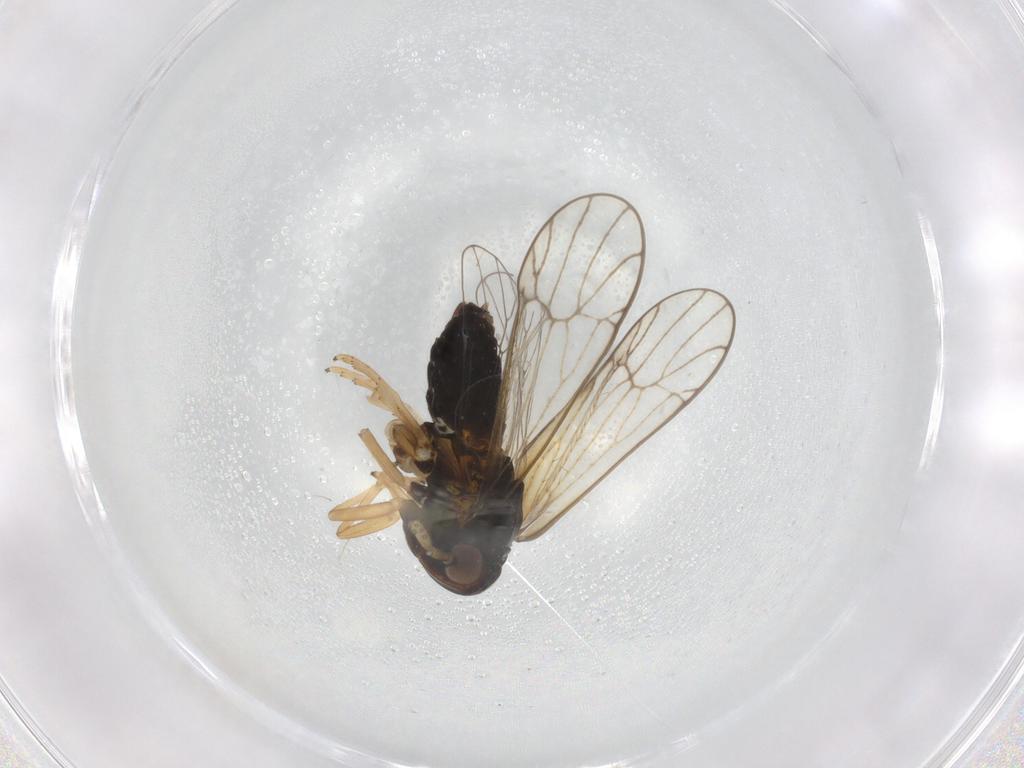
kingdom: Animalia
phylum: Arthropoda
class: Insecta
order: Hemiptera
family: Delphacidae
